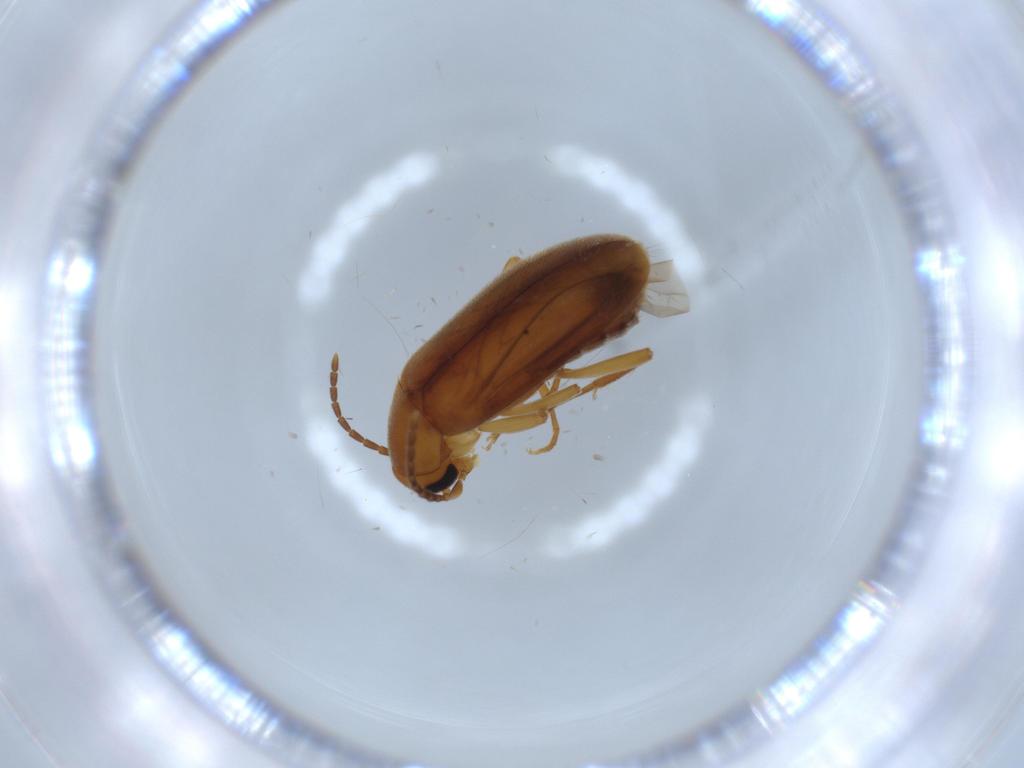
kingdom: Animalia
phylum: Arthropoda
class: Insecta
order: Coleoptera
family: Scraptiidae
